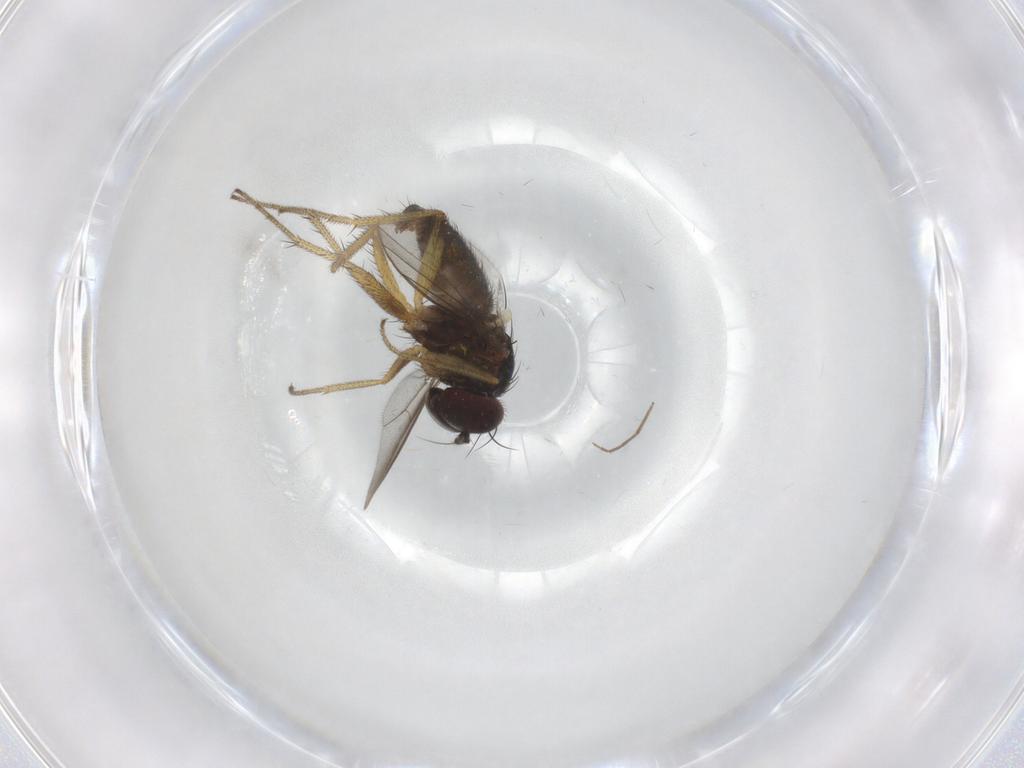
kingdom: Animalia
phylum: Arthropoda
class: Insecta
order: Diptera
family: Dolichopodidae
